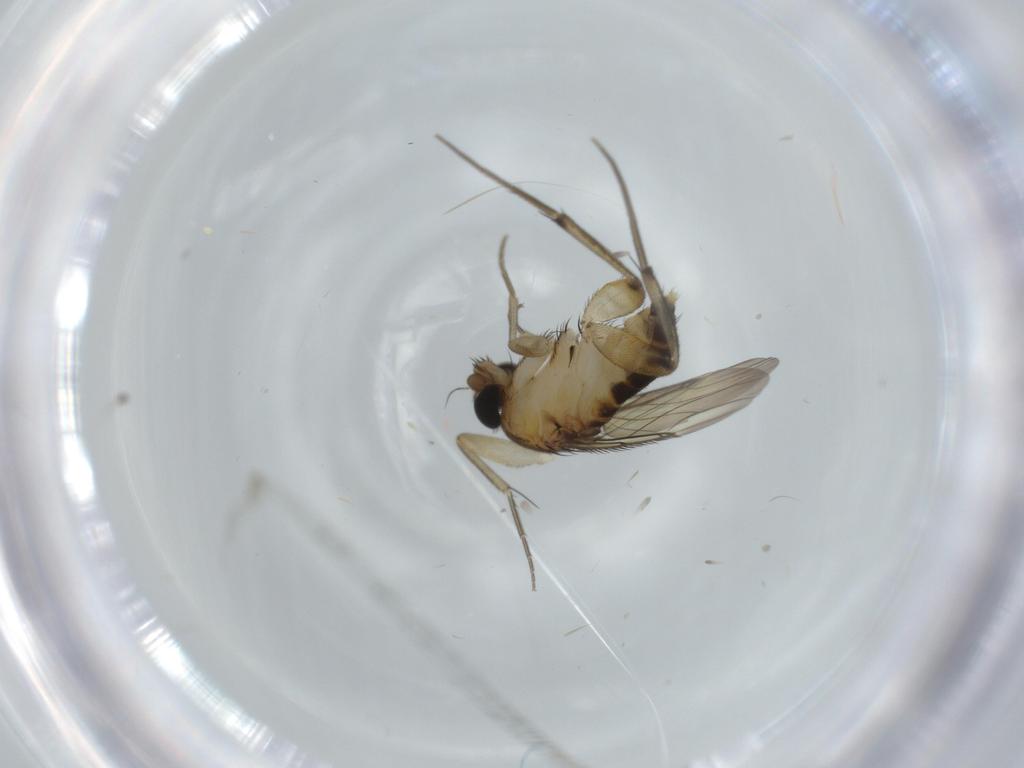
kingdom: Animalia
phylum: Arthropoda
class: Insecta
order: Diptera
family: Phoridae
